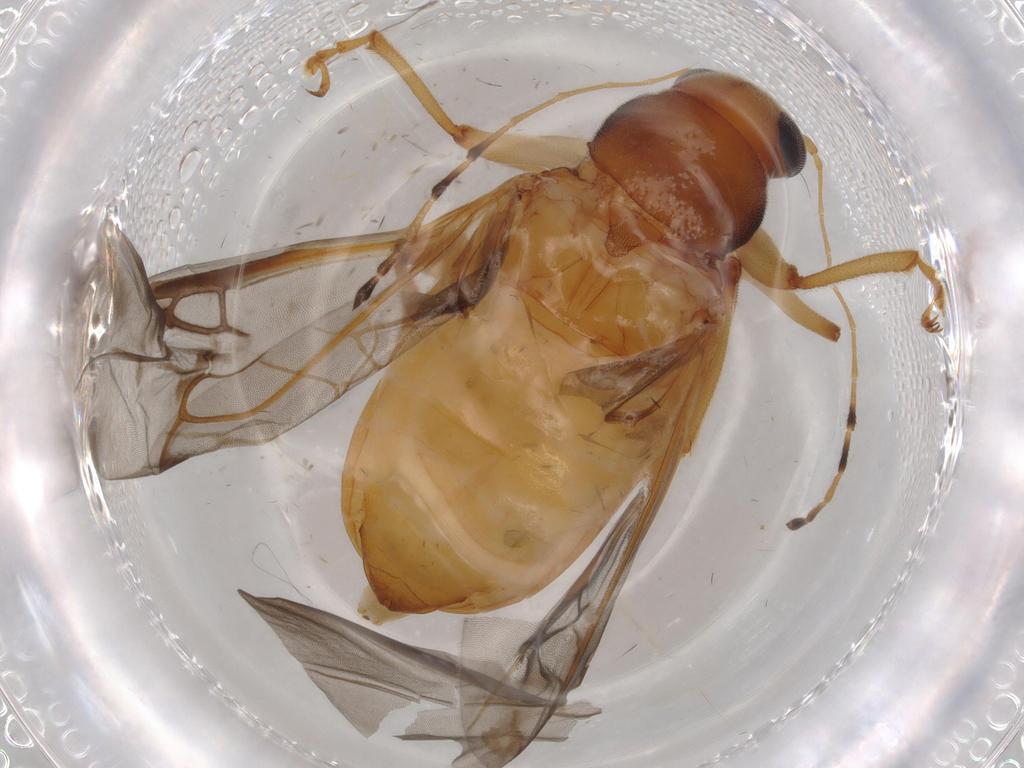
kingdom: Animalia
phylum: Arthropoda
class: Insecta
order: Coleoptera
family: Chrysomelidae
